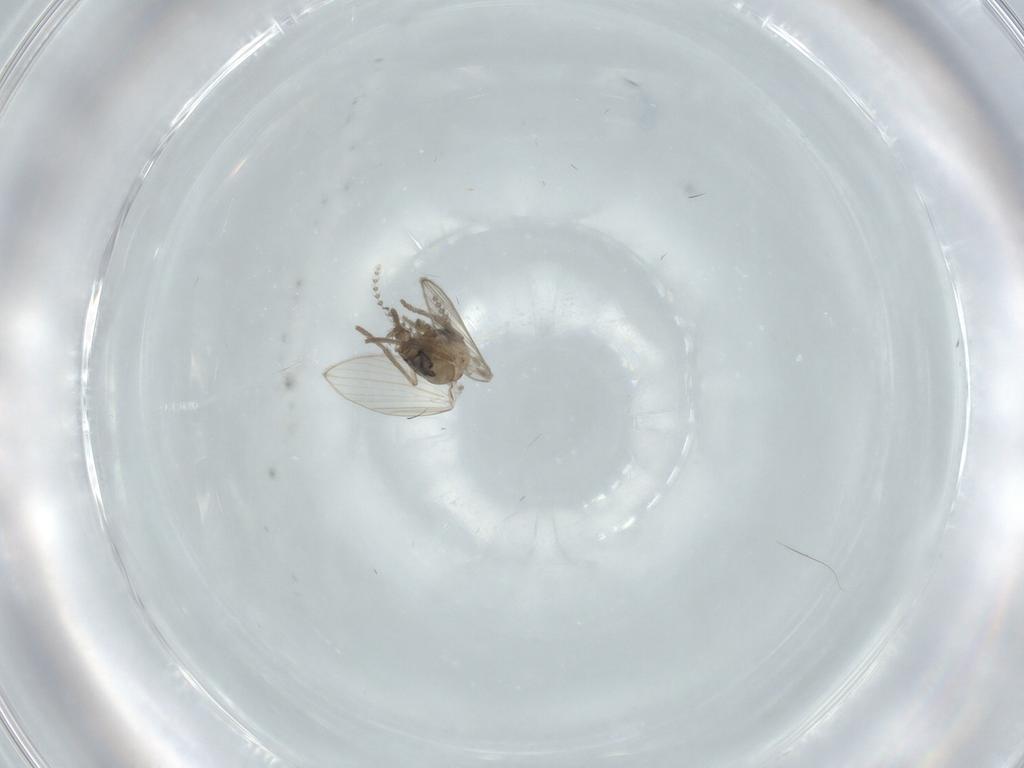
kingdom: Animalia
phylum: Arthropoda
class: Insecta
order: Diptera
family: Psychodidae
